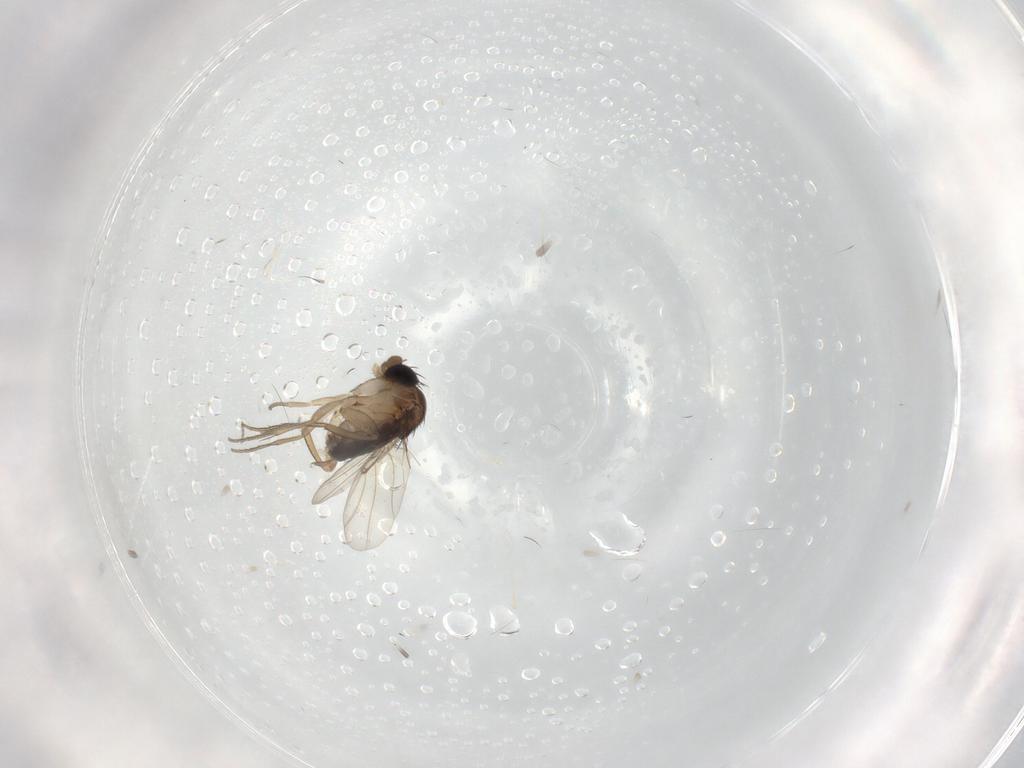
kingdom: Animalia
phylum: Arthropoda
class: Insecta
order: Diptera
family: Phoridae
